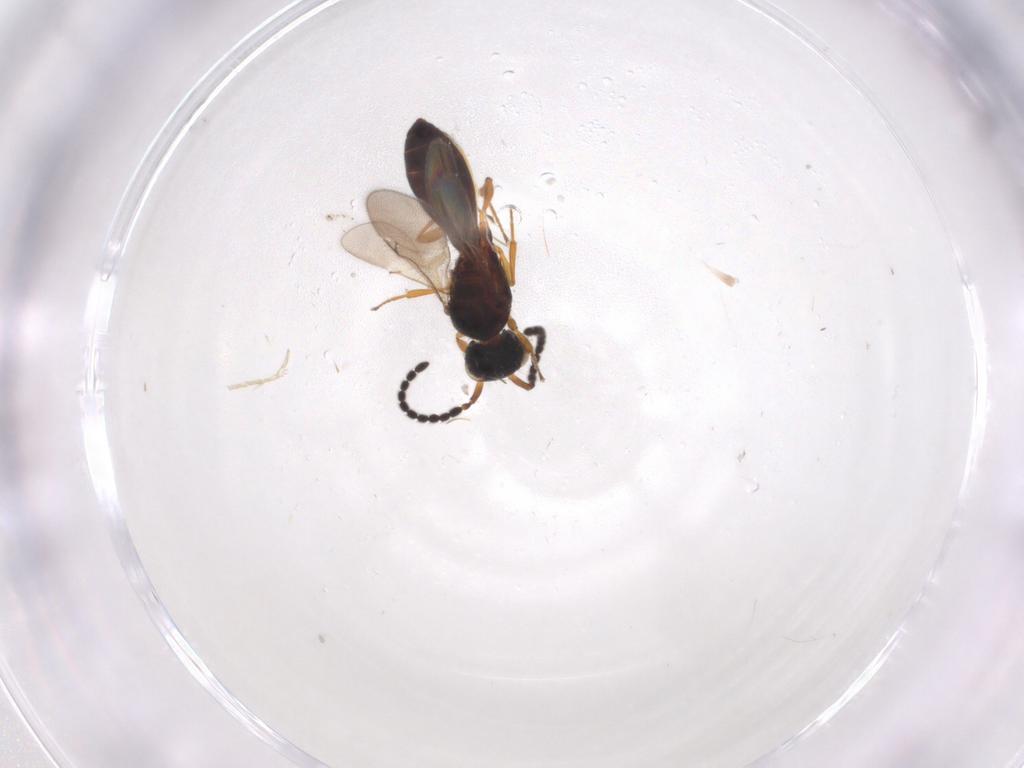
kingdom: Animalia
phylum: Arthropoda
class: Insecta
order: Hymenoptera
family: Scelionidae
